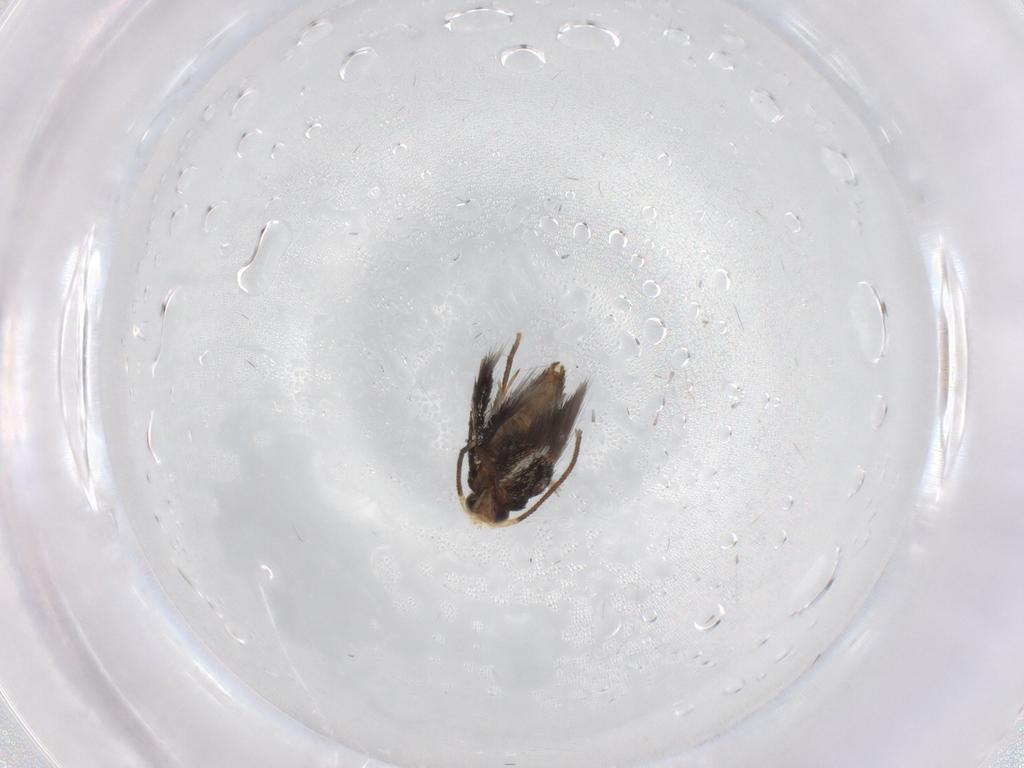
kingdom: Animalia
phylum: Arthropoda
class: Insecta
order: Lepidoptera
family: Nepticulidae
